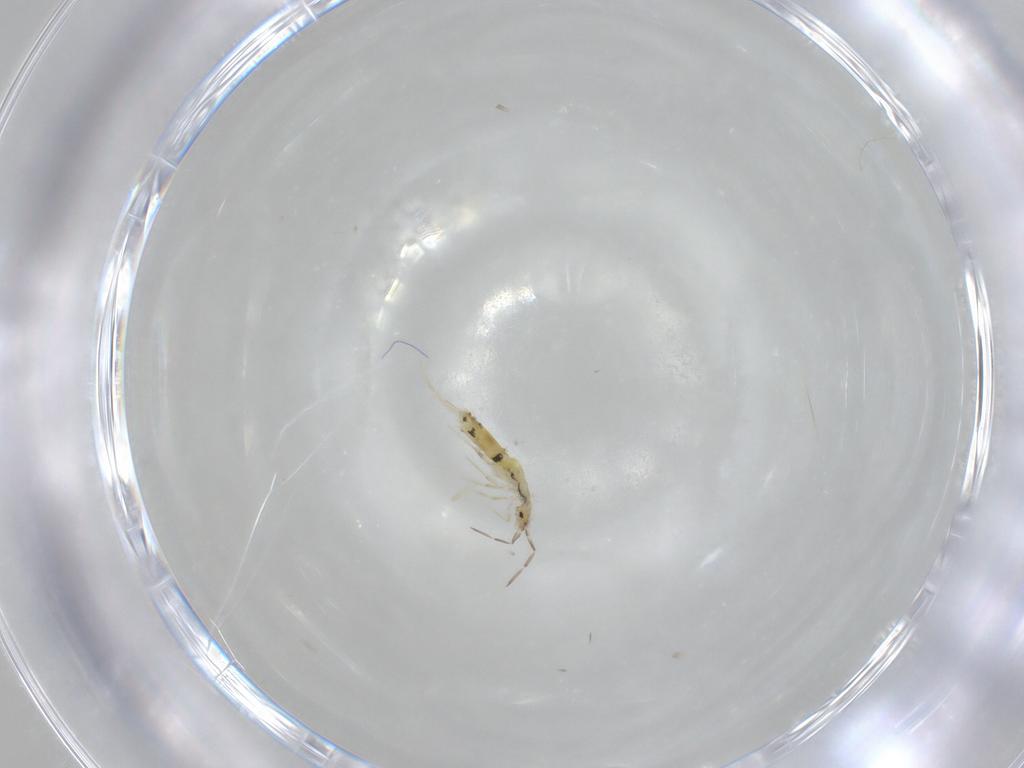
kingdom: Animalia
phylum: Arthropoda
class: Collembola
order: Entomobryomorpha
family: Entomobryidae
